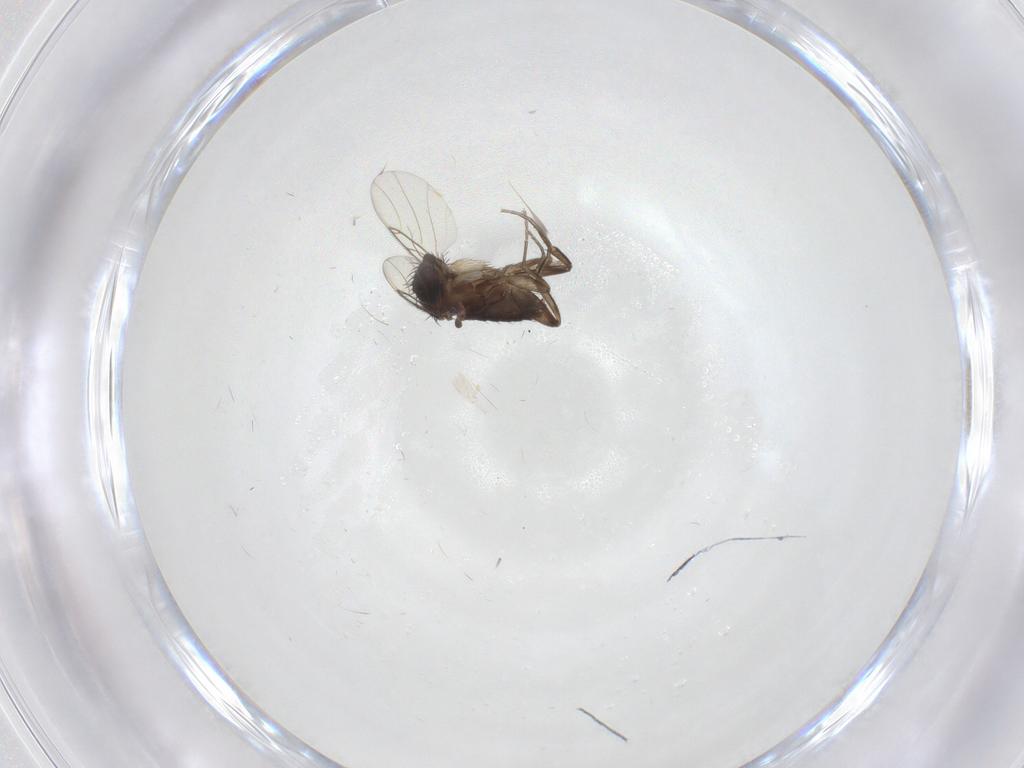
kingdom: Animalia
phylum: Arthropoda
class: Insecta
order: Diptera
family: Phoridae
